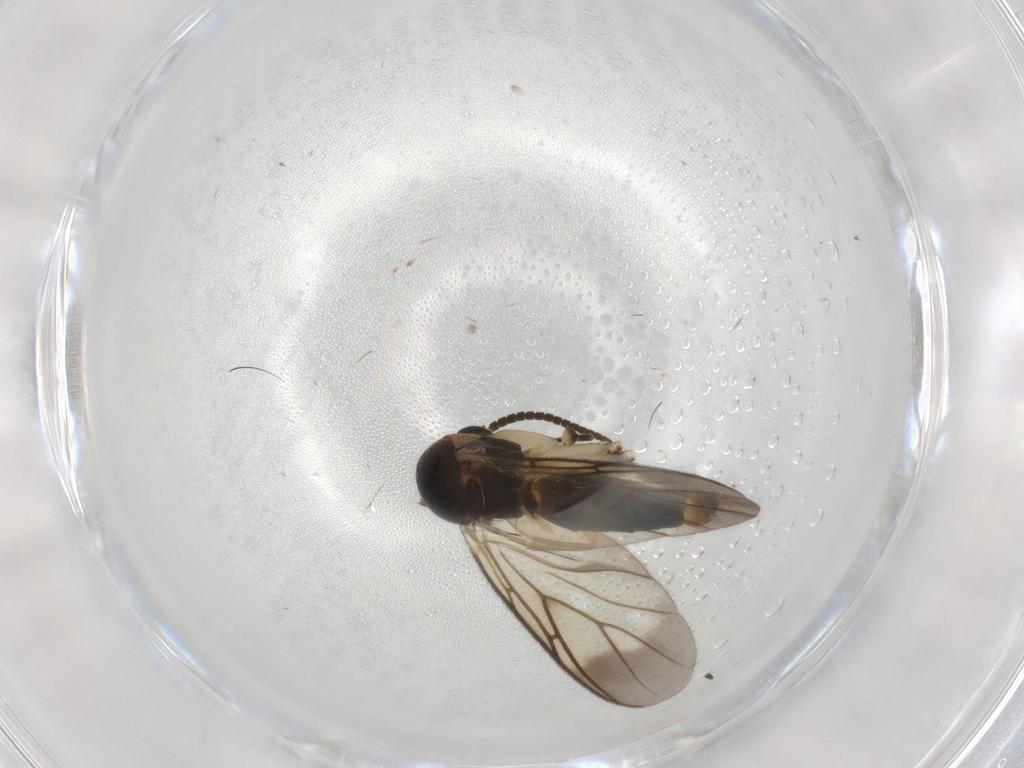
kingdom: Animalia
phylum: Arthropoda
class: Insecta
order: Diptera
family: Mycetophilidae
